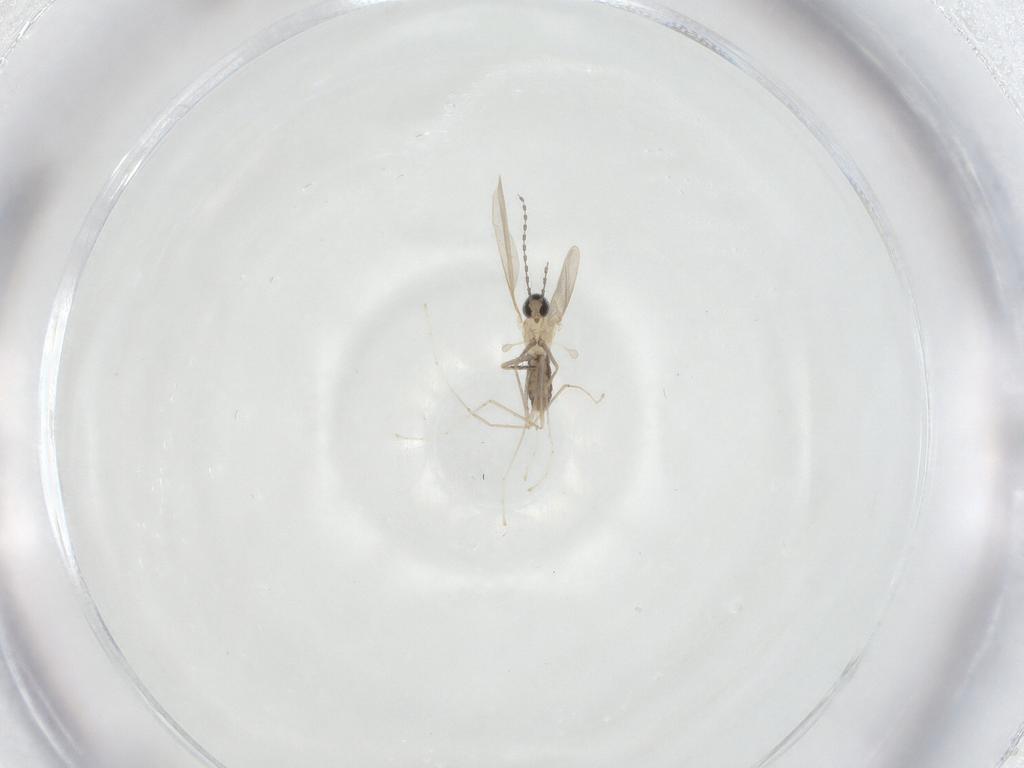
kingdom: Animalia
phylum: Arthropoda
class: Insecta
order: Diptera
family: Cecidomyiidae
